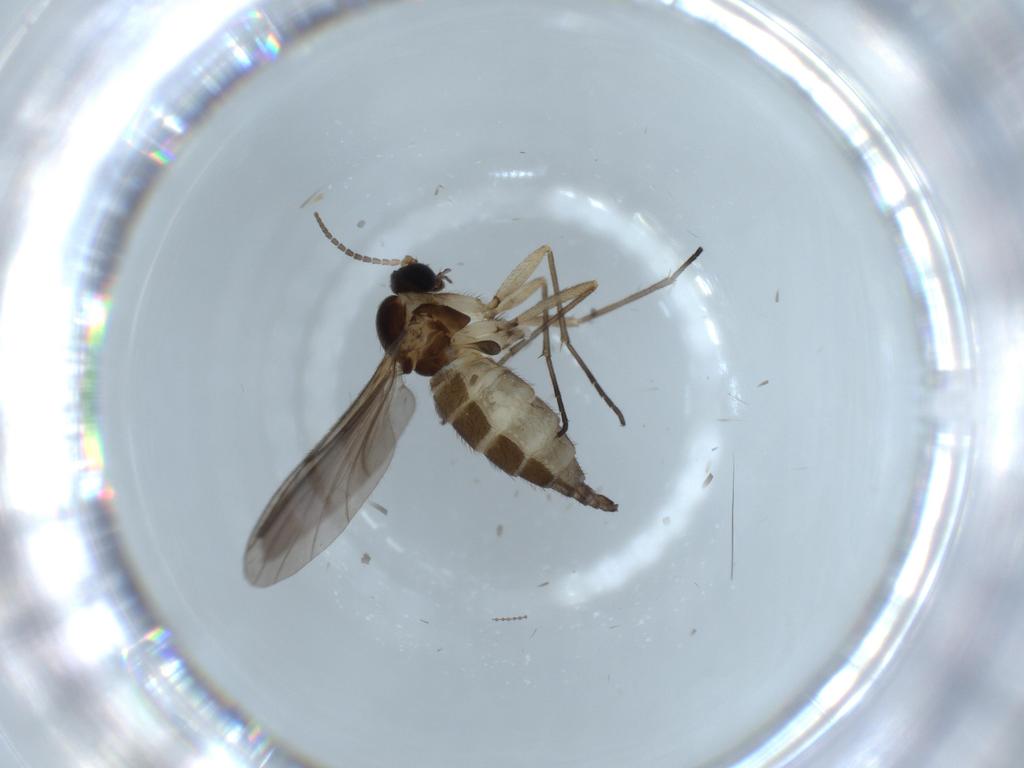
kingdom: Animalia
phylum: Arthropoda
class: Insecta
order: Diptera
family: Sciaridae
